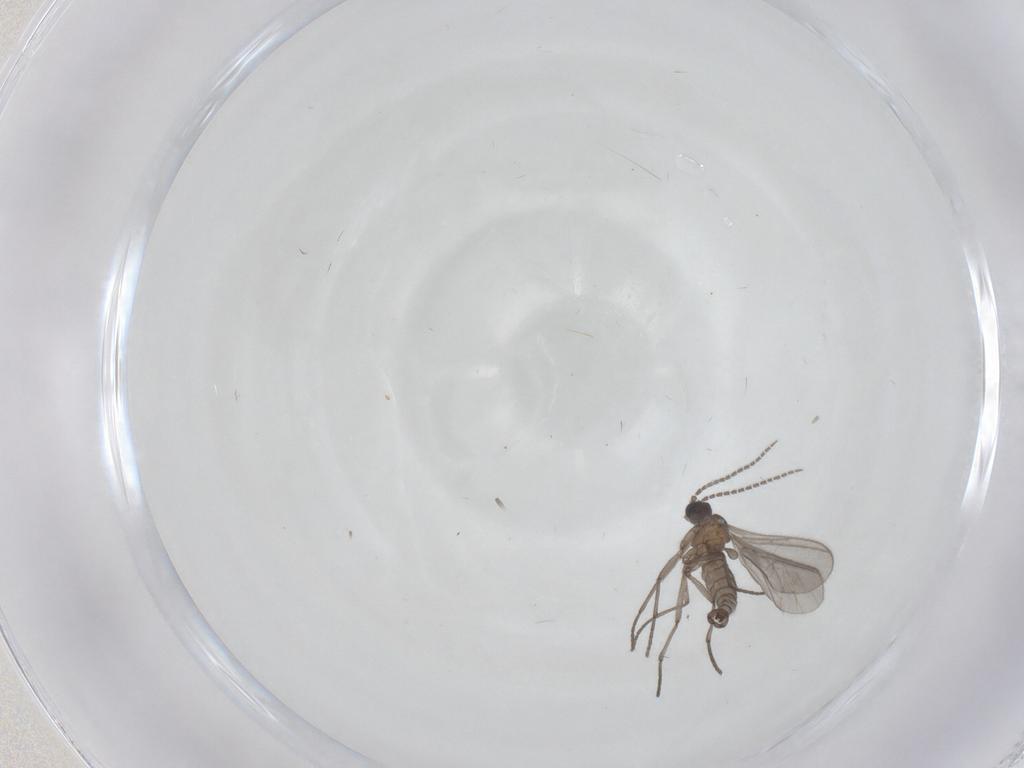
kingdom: Animalia
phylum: Arthropoda
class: Insecta
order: Diptera
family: Sciaridae
